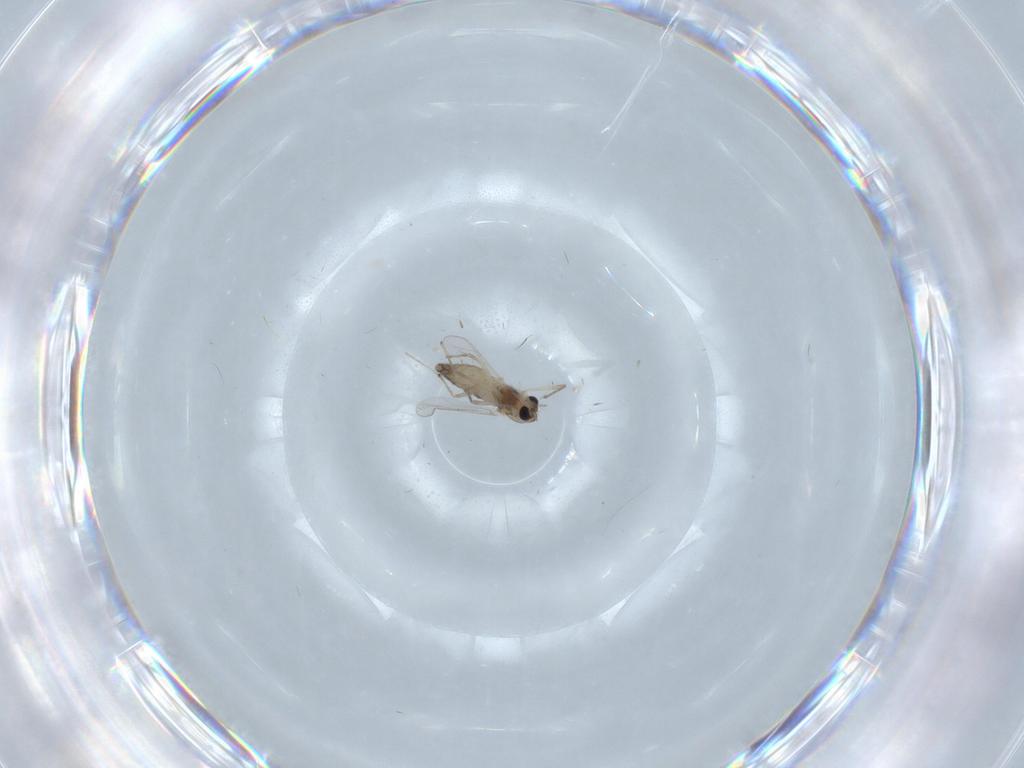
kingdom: Animalia
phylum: Arthropoda
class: Insecta
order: Diptera
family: Chironomidae
